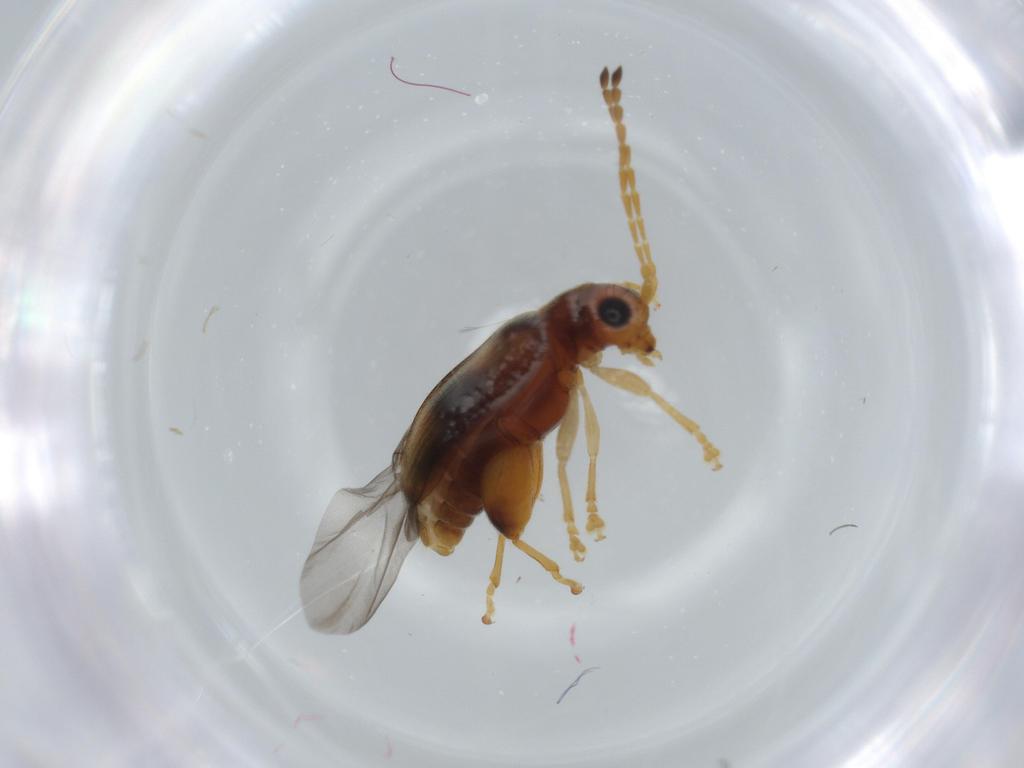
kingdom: Animalia
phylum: Arthropoda
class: Insecta
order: Coleoptera
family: Chrysomelidae
